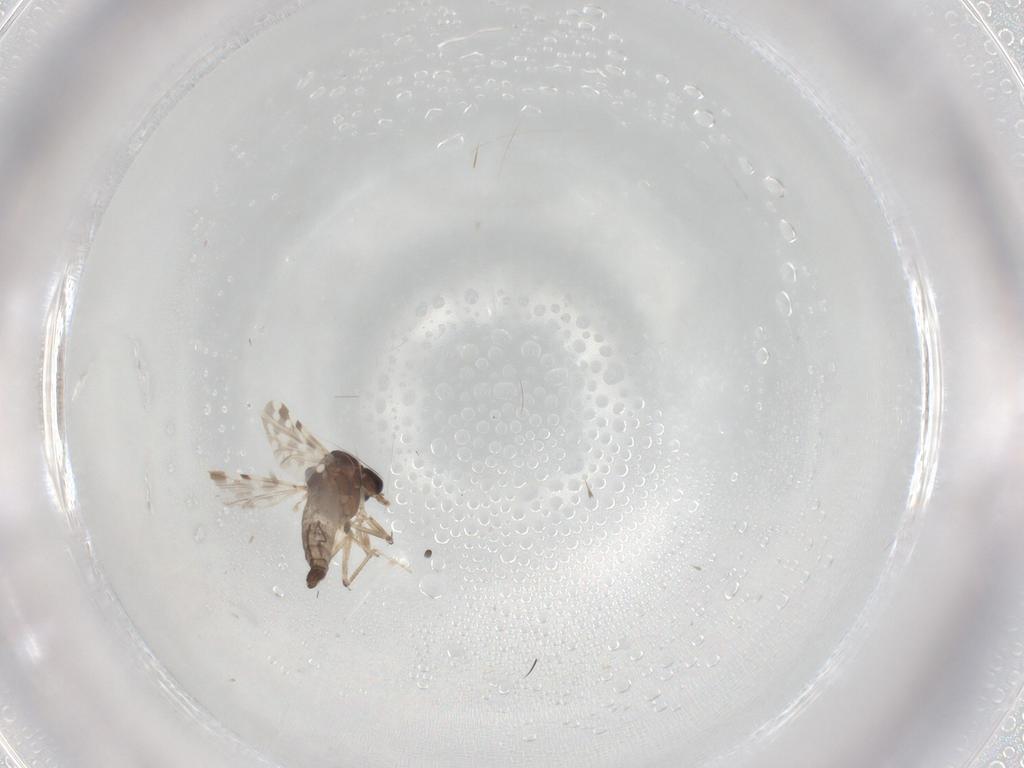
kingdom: Animalia
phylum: Arthropoda
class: Insecta
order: Diptera
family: Ceratopogonidae
